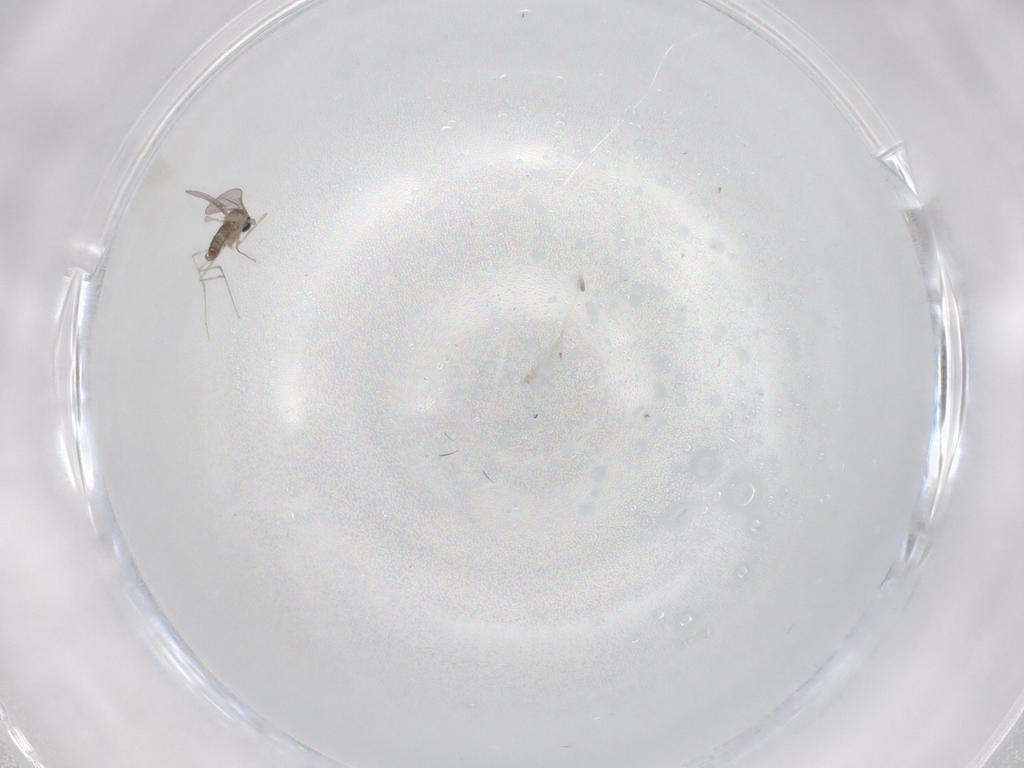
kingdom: Animalia
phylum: Arthropoda
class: Insecta
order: Diptera
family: Cecidomyiidae
